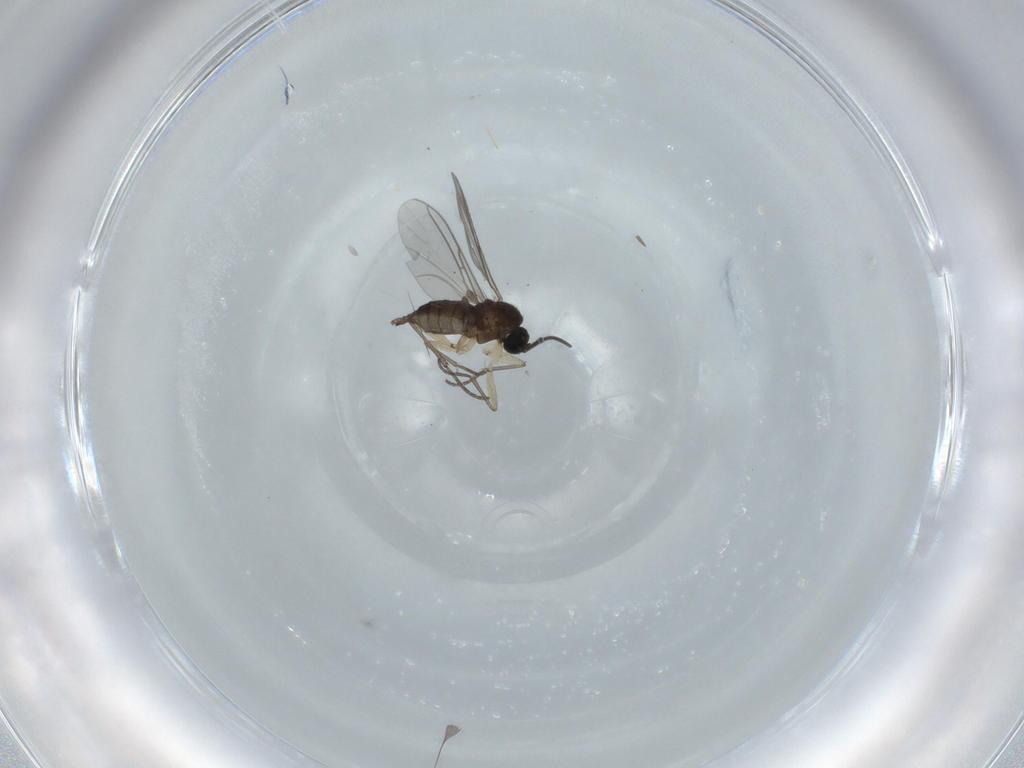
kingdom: Animalia
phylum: Arthropoda
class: Insecta
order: Diptera
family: Sciaridae
